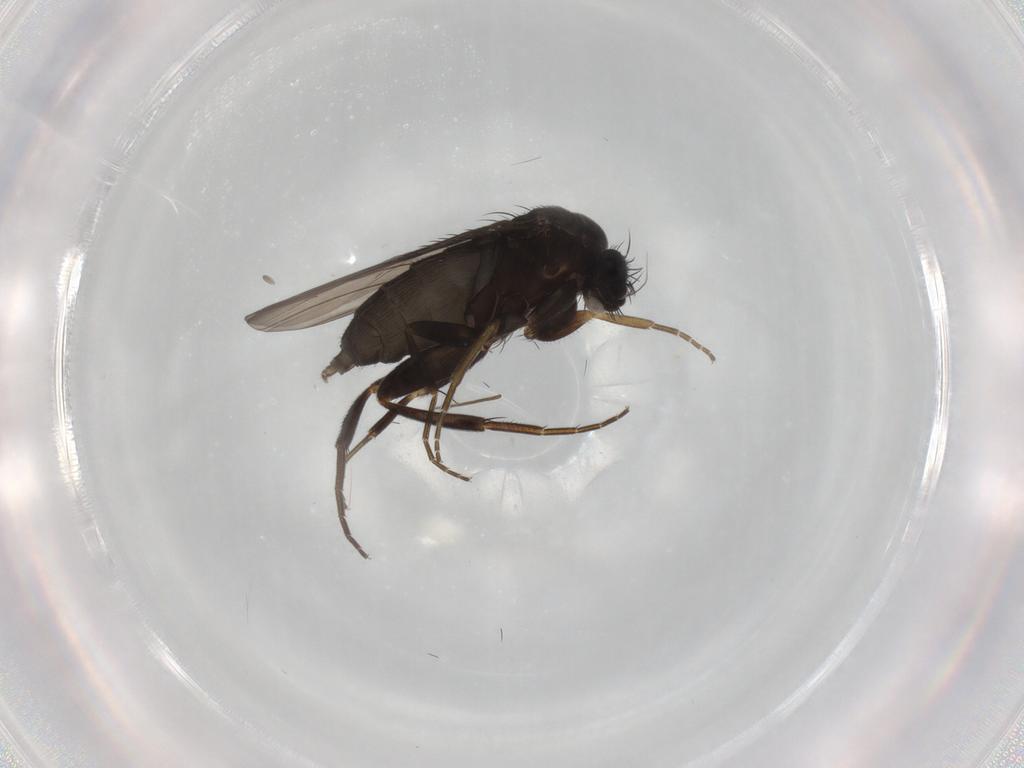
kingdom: Animalia
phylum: Arthropoda
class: Insecta
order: Diptera
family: Phoridae
